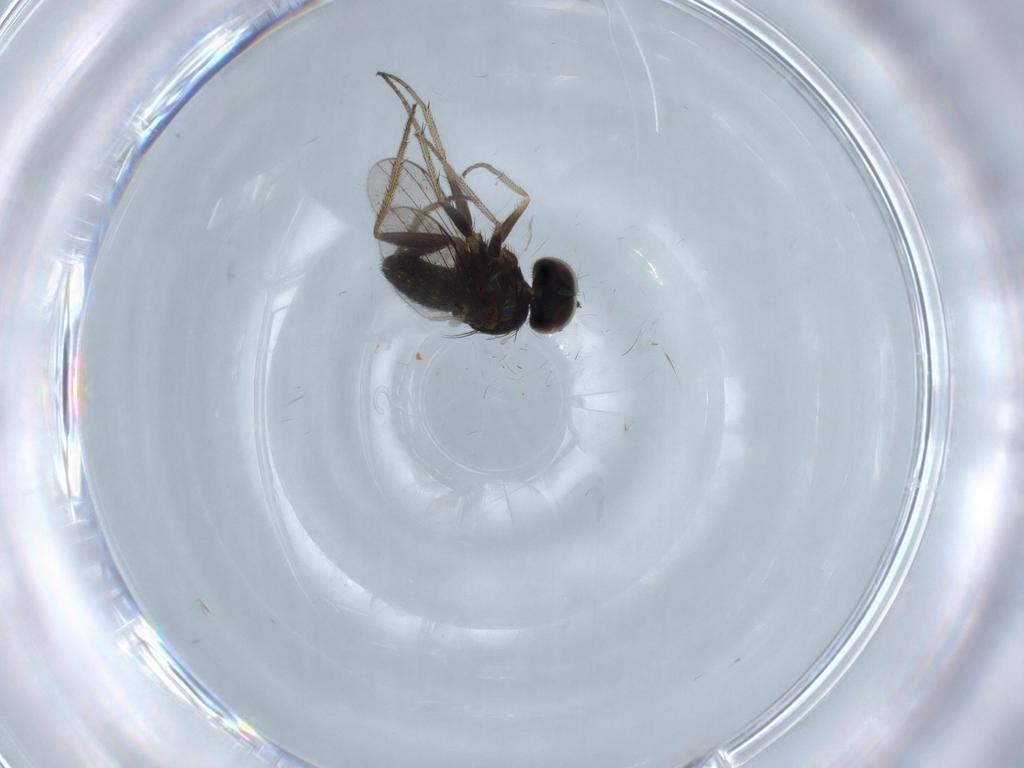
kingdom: Animalia
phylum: Arthropoda
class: Insecta
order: Diptera
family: Dolichopodidae
